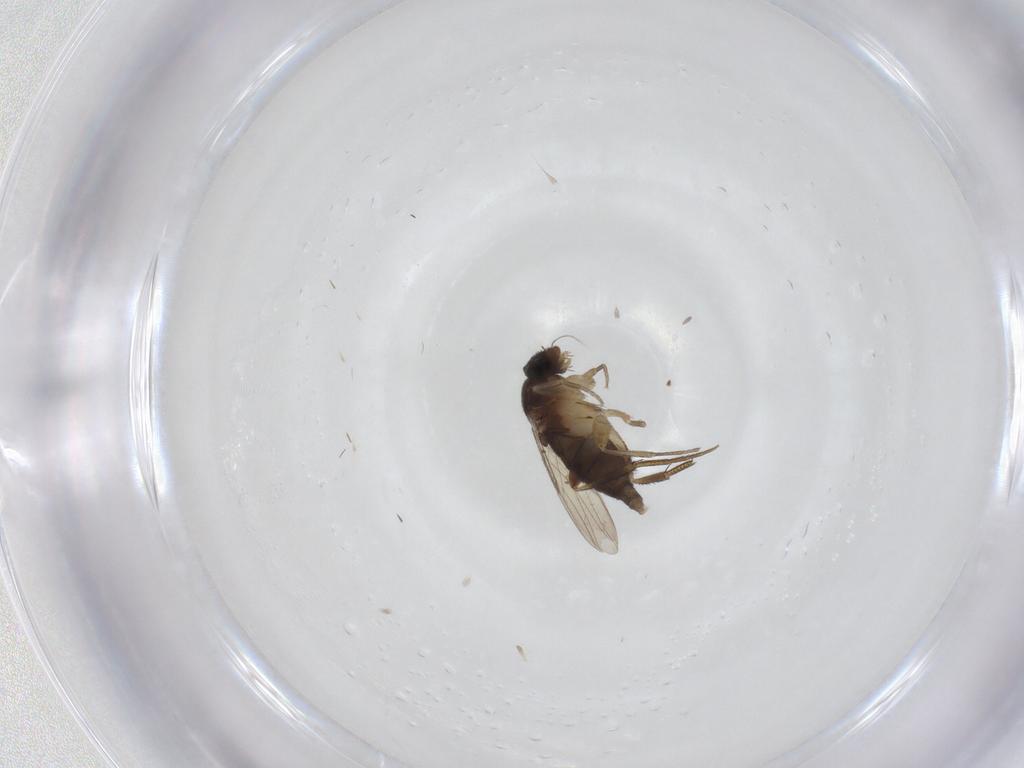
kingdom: Animalia
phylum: Arthropoda
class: Insecta
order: Diptera
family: Phoridae
